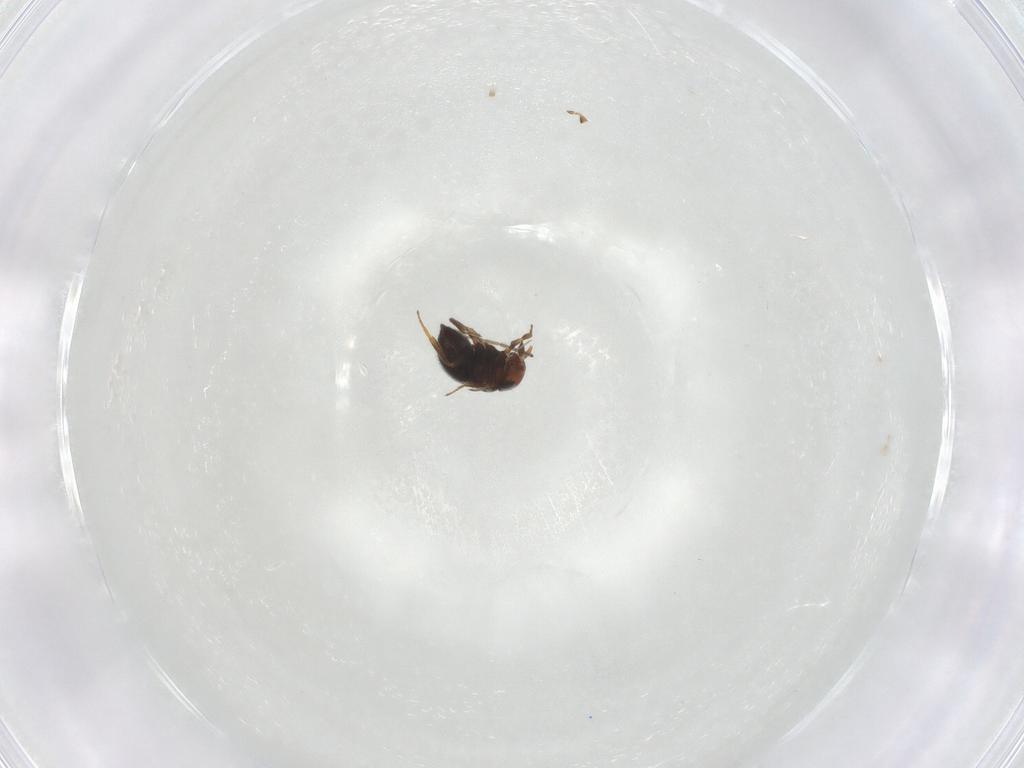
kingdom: Animalia
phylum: Arthropoda
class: Insecta
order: Hymenoptera
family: Scelionidae
